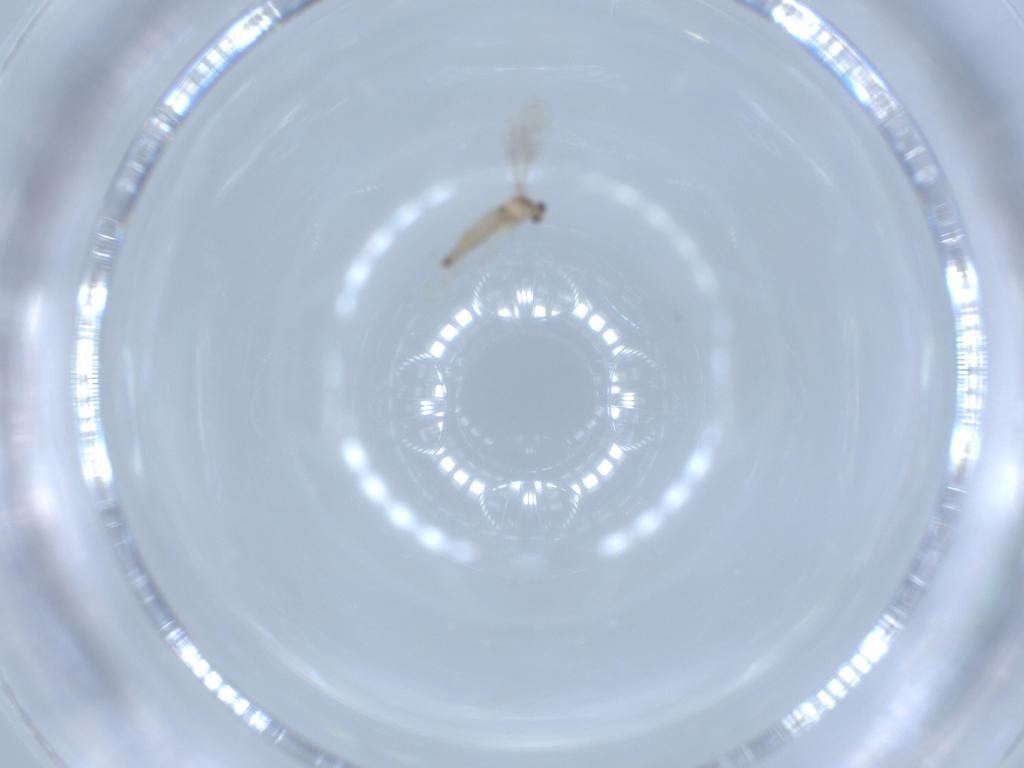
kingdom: Animalia
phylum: Arthropoda
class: Insecta
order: Diptera
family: Cecidomyiidae
